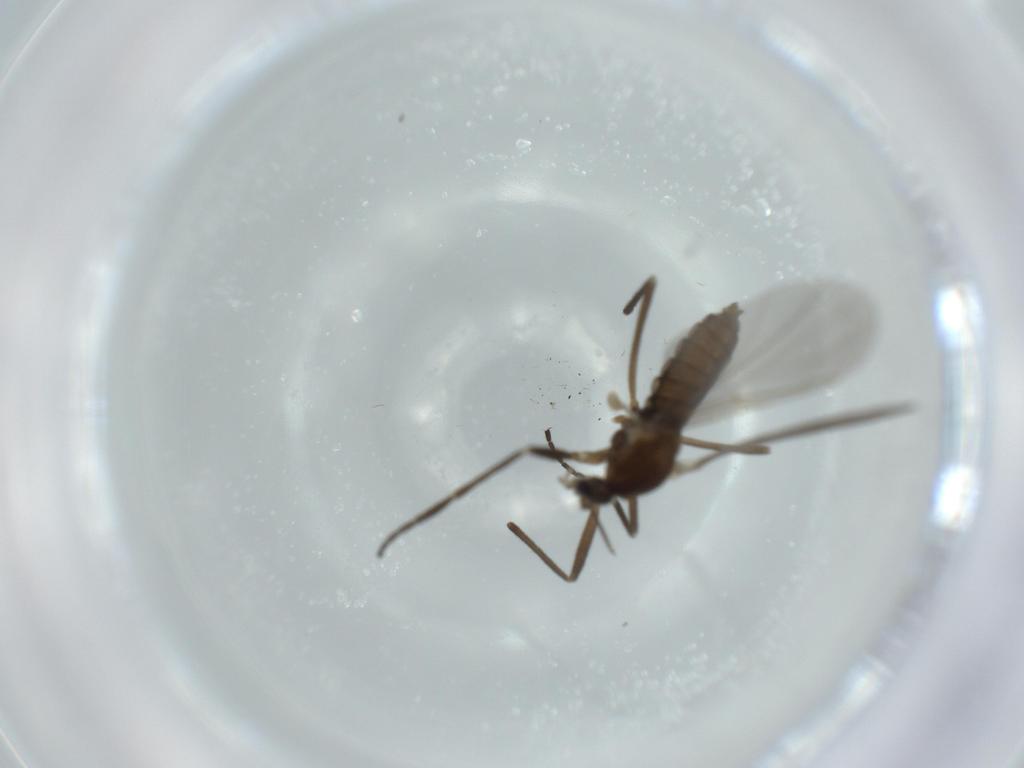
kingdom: Animalia
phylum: Arthropoda
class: Insecta
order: Diptera
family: Cecidomyiidae
